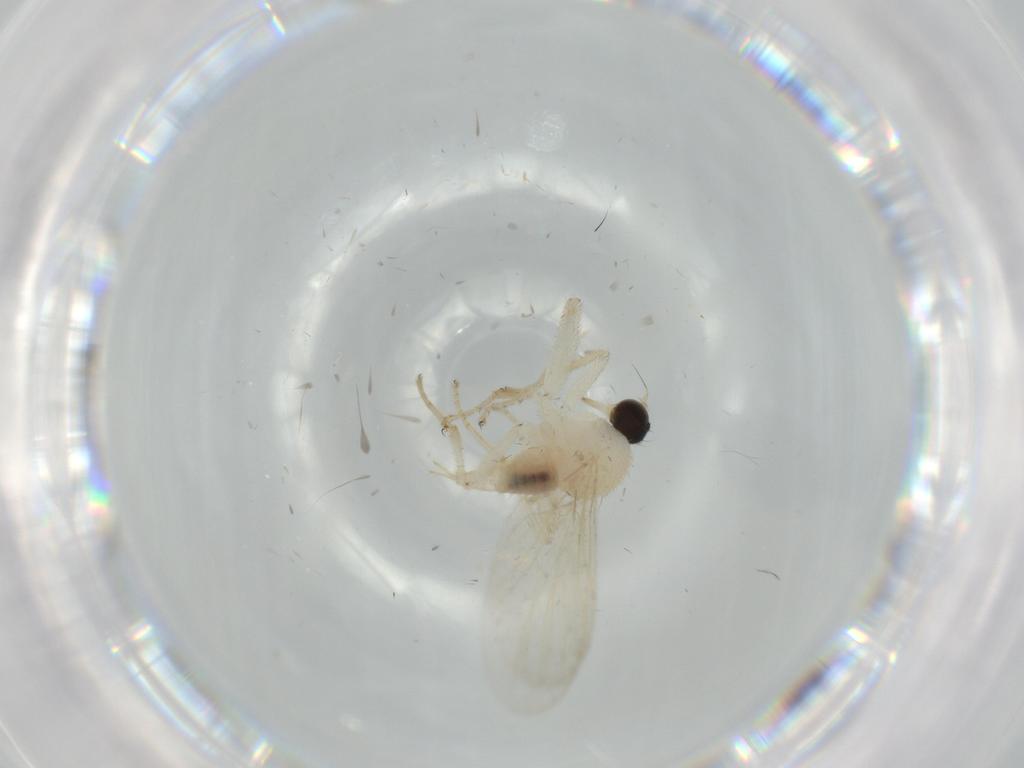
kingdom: Animalia
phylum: Arthropoda
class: Insecta
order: Diptera
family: Hybotidae
